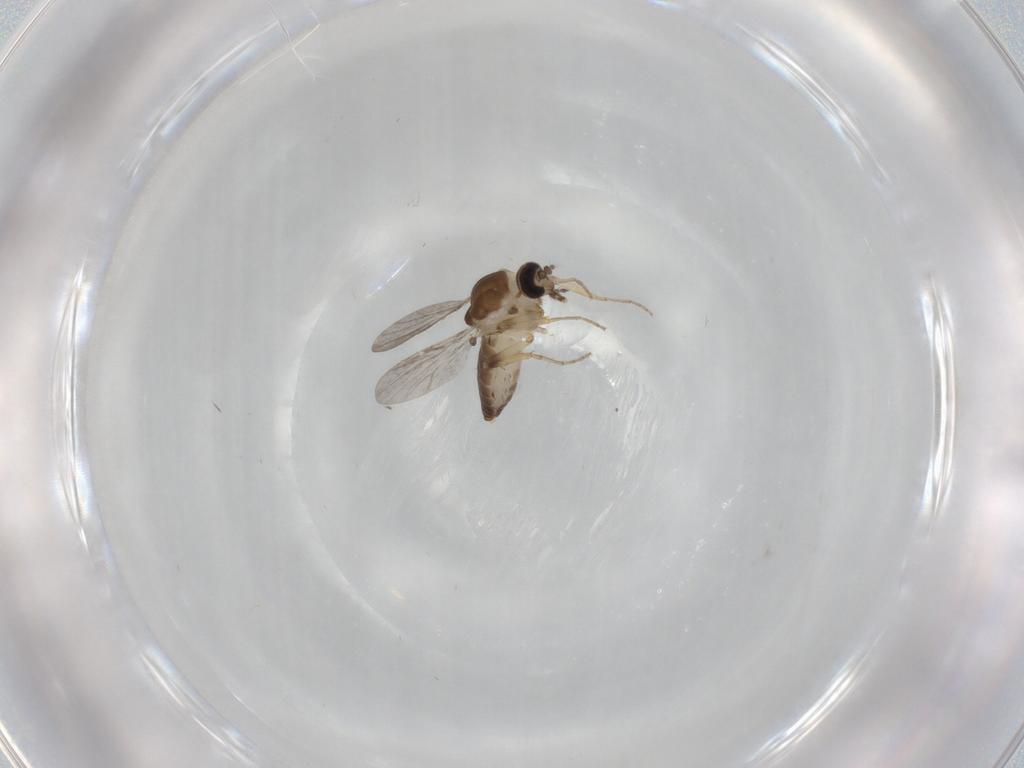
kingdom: Animalia
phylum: Arthropoda
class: Insecta
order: Diptera
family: Ceratopogonidae
